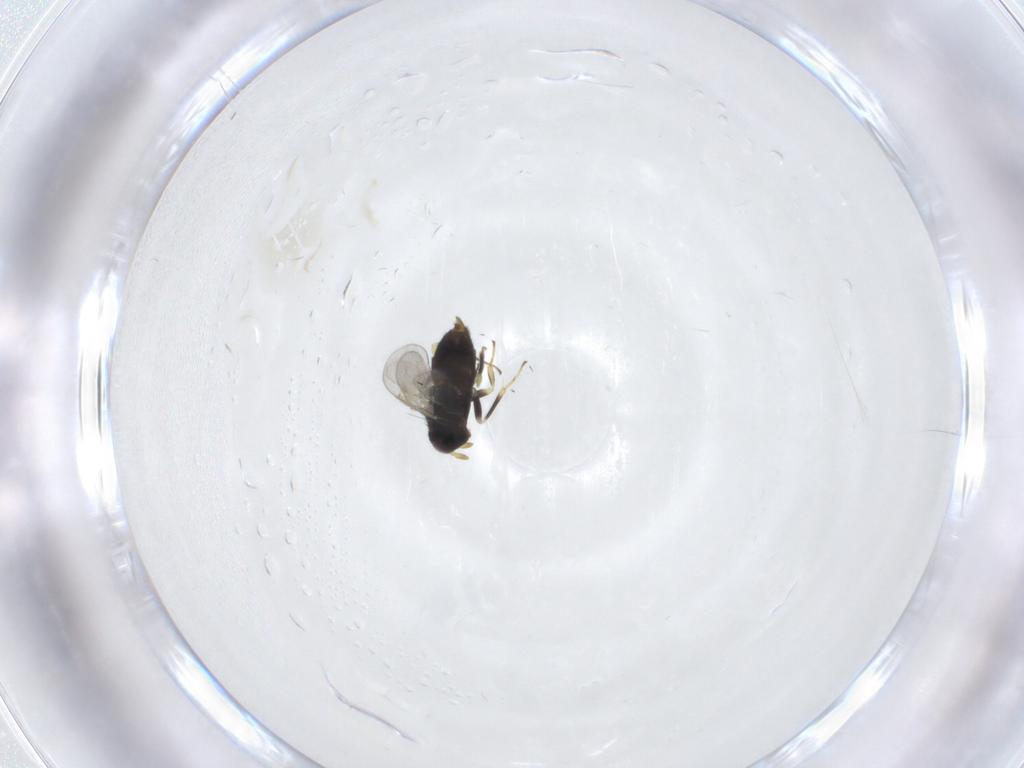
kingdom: Animalia
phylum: Arthropoda
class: Insecta
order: Hymenoptera
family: Aphelinidae
